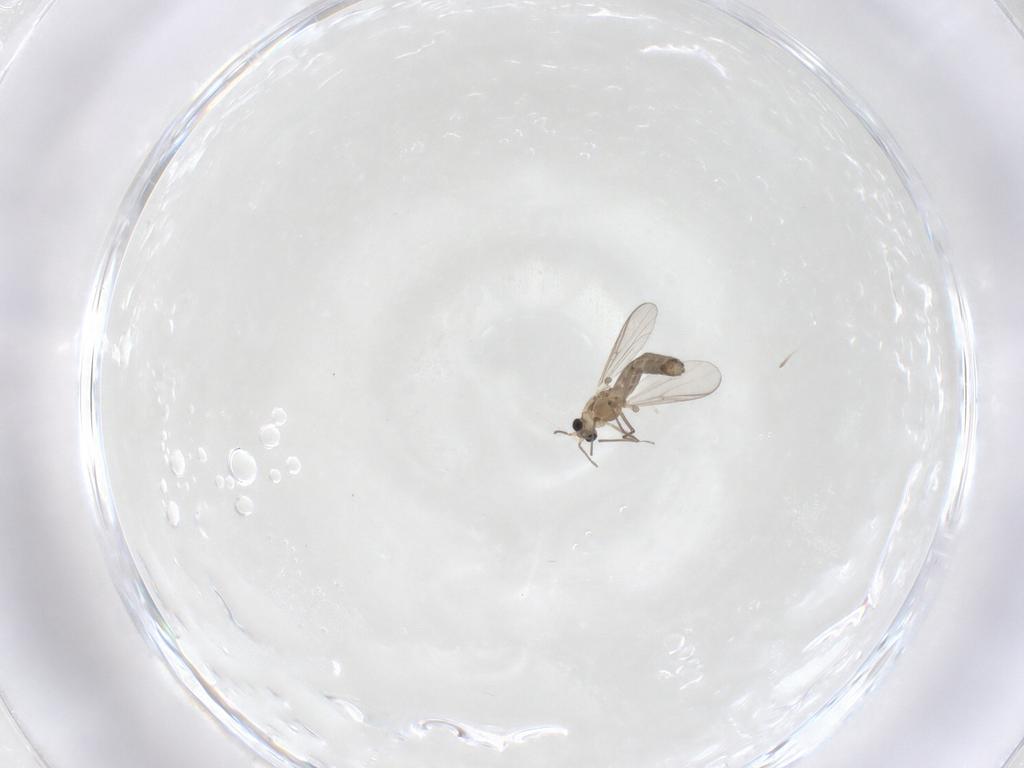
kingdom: Animalia
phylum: Arthropoda
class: Insecta
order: Diptera
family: Chironomidae
